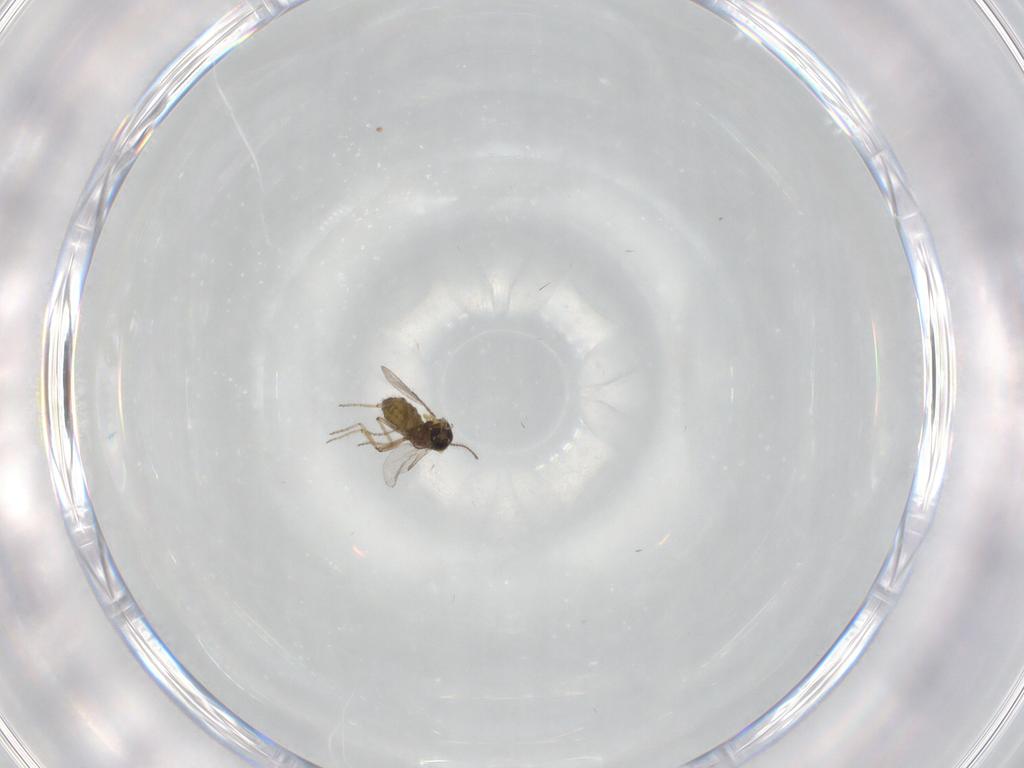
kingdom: Animalia
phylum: Arthropoda
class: Insecta
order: Diptera
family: Ceratopogonidae
